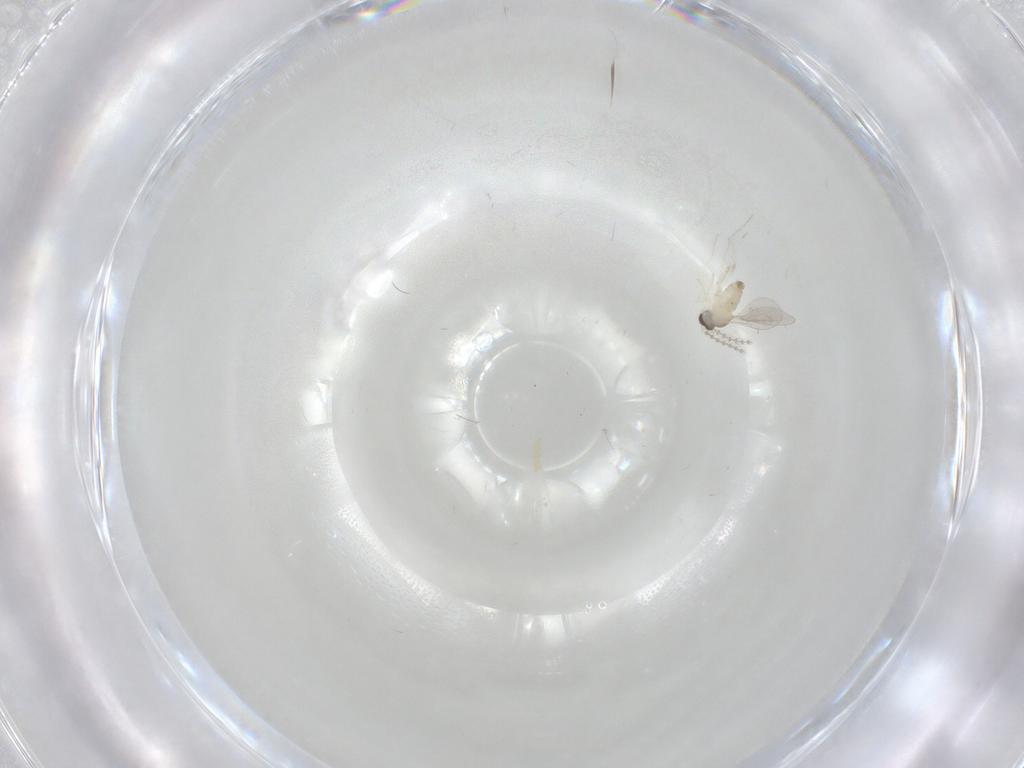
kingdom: Animalia
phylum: Arthropoda
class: Insecta
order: Diptera
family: Cecidomyiidae
